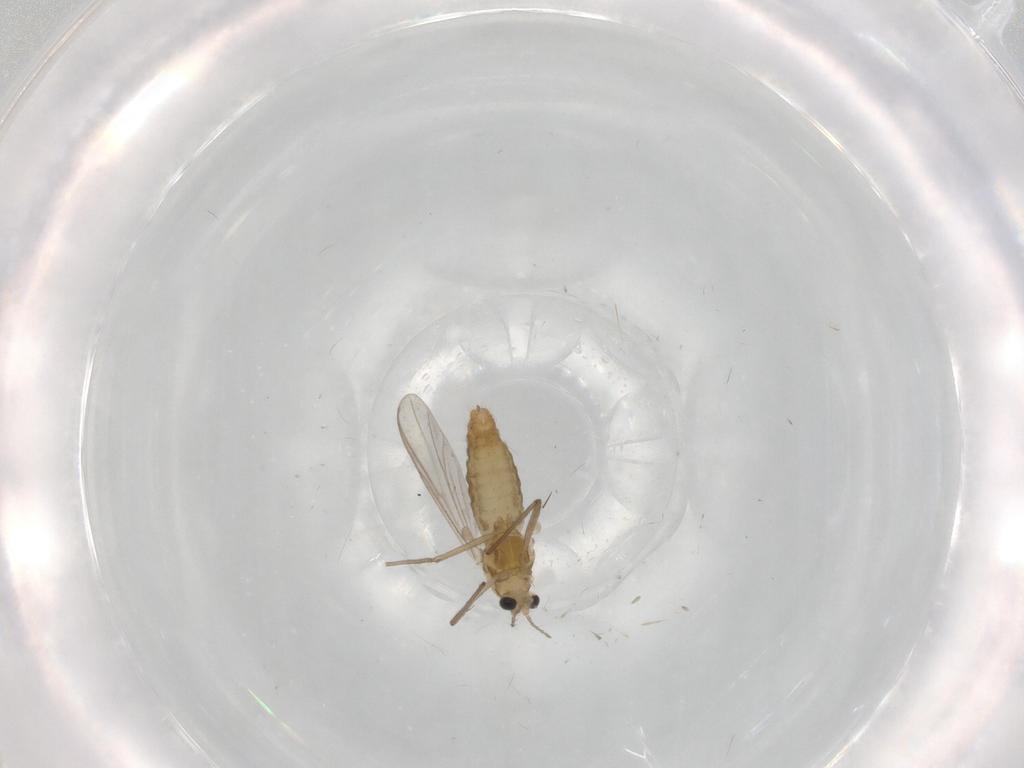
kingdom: Animalia
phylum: Arthropoda
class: Insecta
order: Diptera
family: Chironomidae
